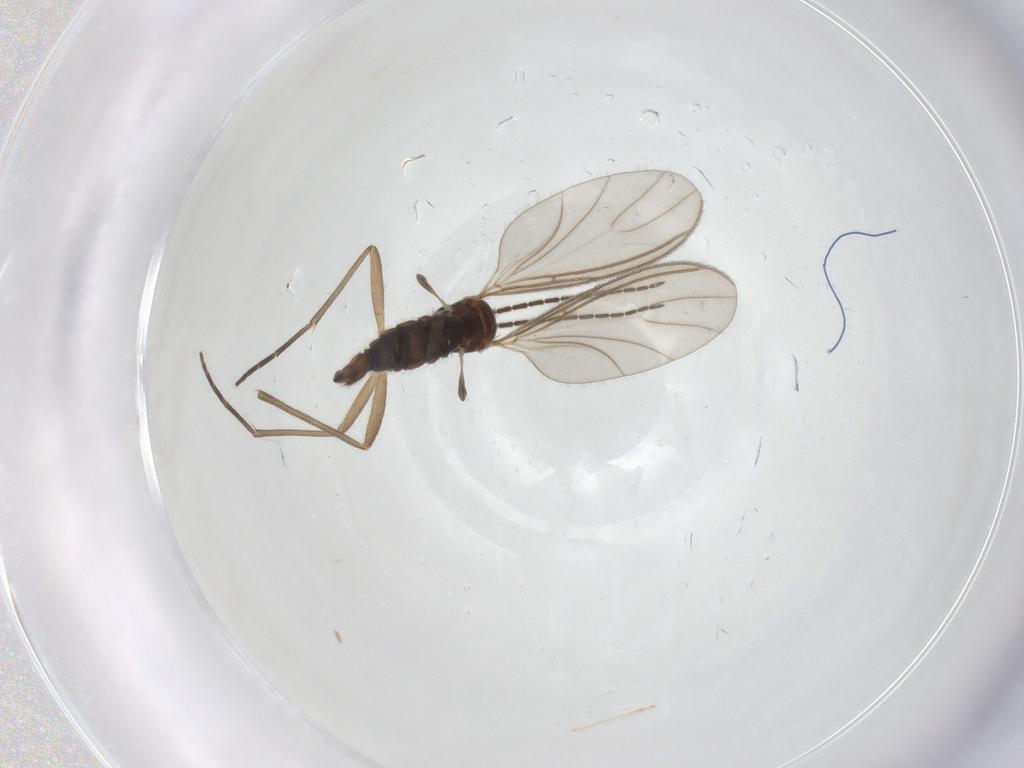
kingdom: Animalia
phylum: Arthropoda
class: Insecta
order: Diptera
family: Sciaridae
